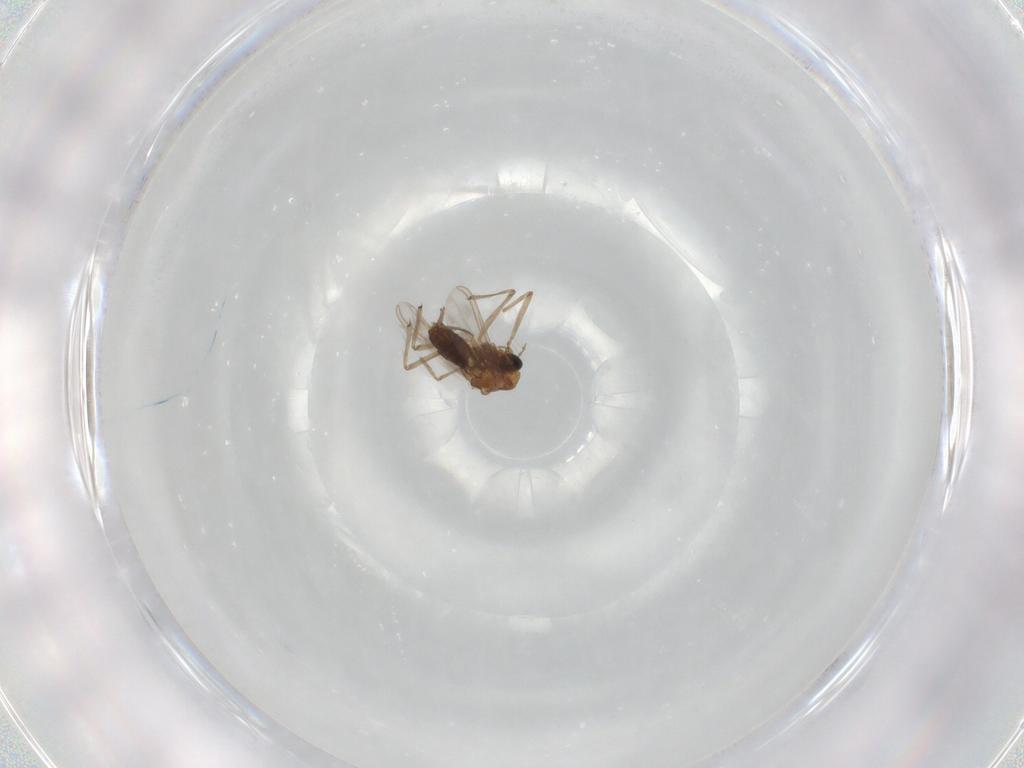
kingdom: Animalia
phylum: Arthropoda
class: Insecta
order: Diptera
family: Chironomidae
